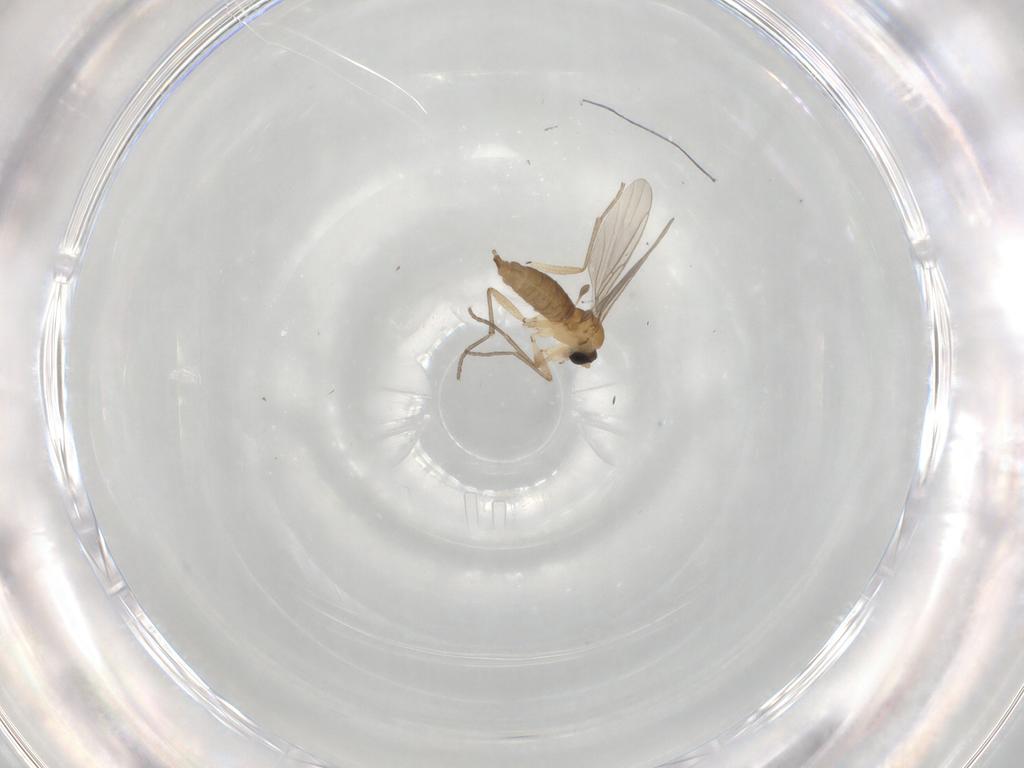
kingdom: Animalia
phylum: Arthropoda
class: Insecta
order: Diptera
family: Sciaridae
